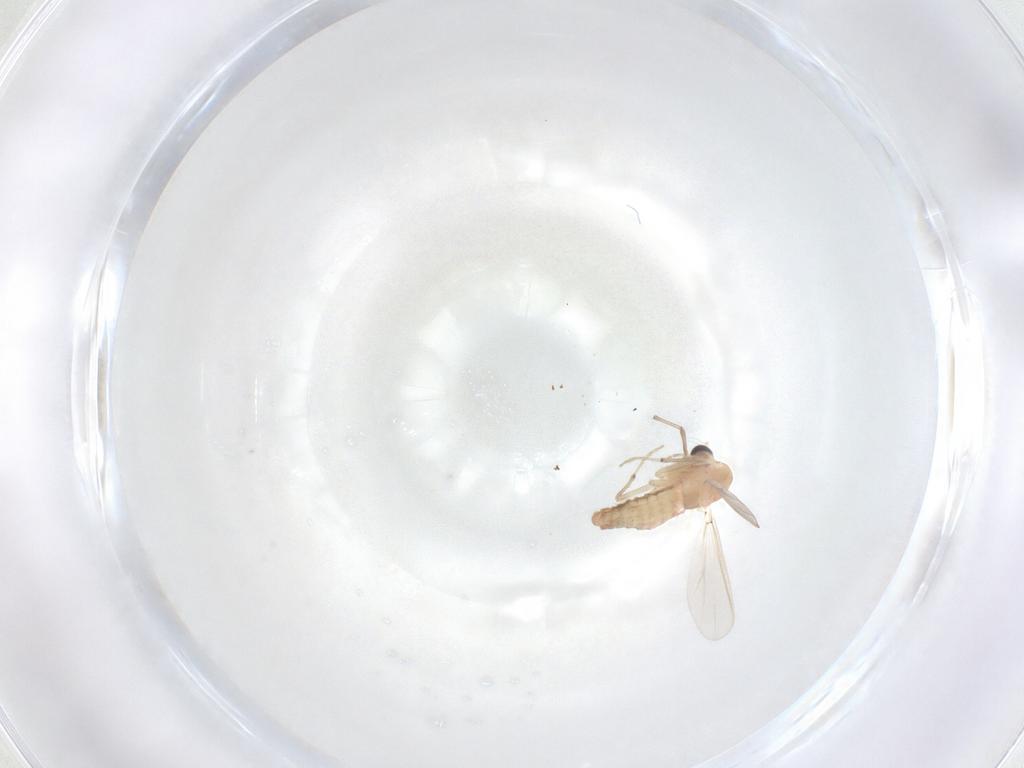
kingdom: Animalia
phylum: Arthropoda
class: Insecta
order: Diptera
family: Chironomidae
